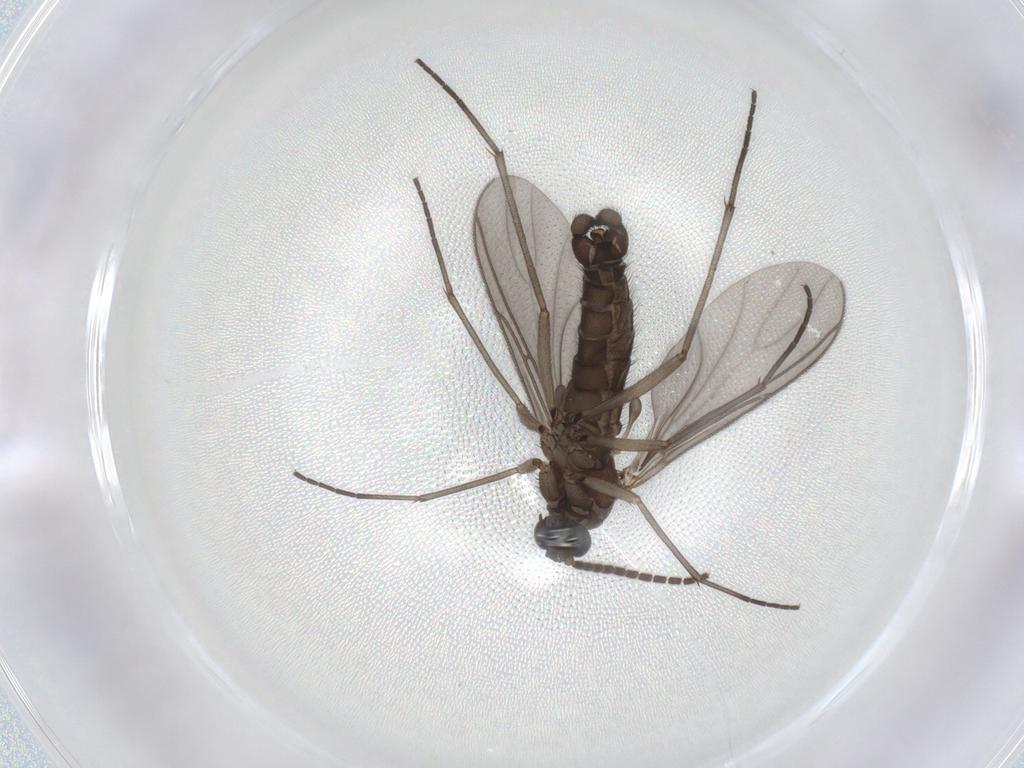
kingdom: Animalia
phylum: Arthropoda
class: Insecta
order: Diptera
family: Sciaridae
